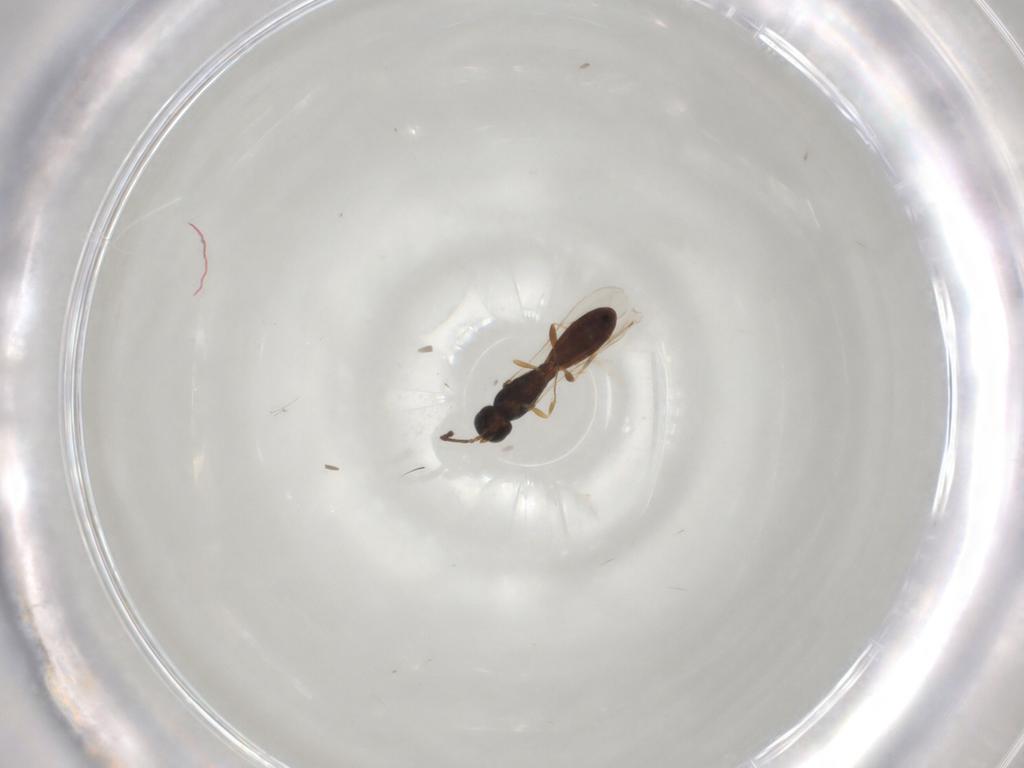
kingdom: Animalia
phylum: Arthropoda
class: Insecta
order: Hymenoptera
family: Scelionidae
